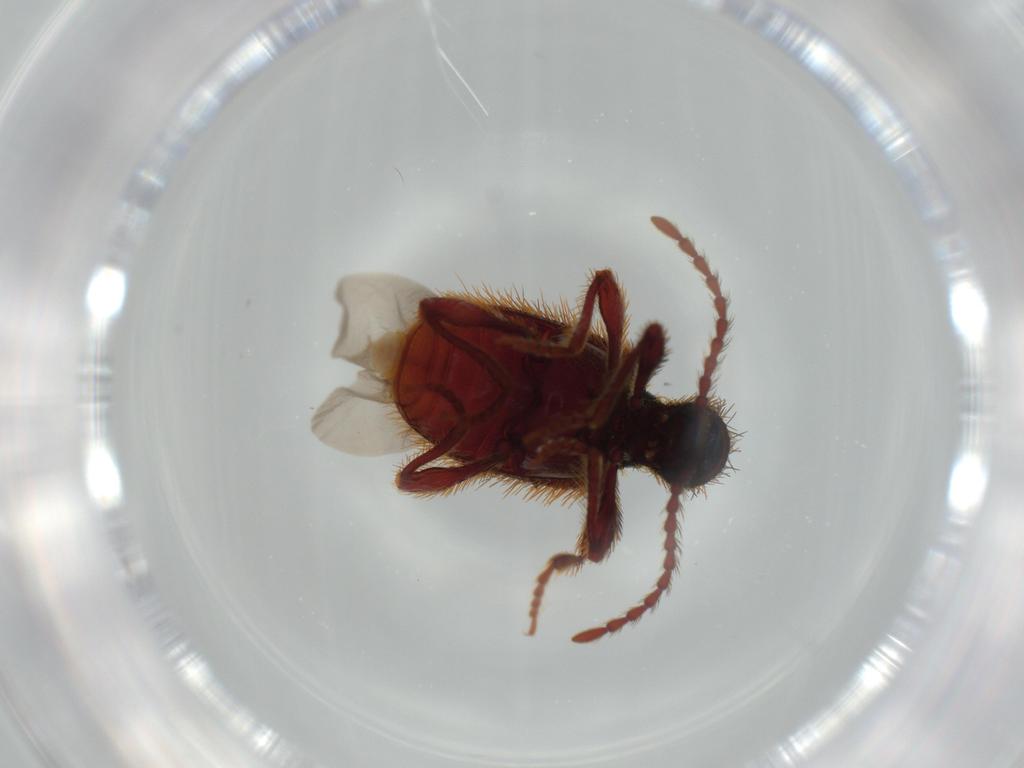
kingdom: Animalia
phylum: Arthropoda
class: Insecta
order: Coleoptera
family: Ptinidae
